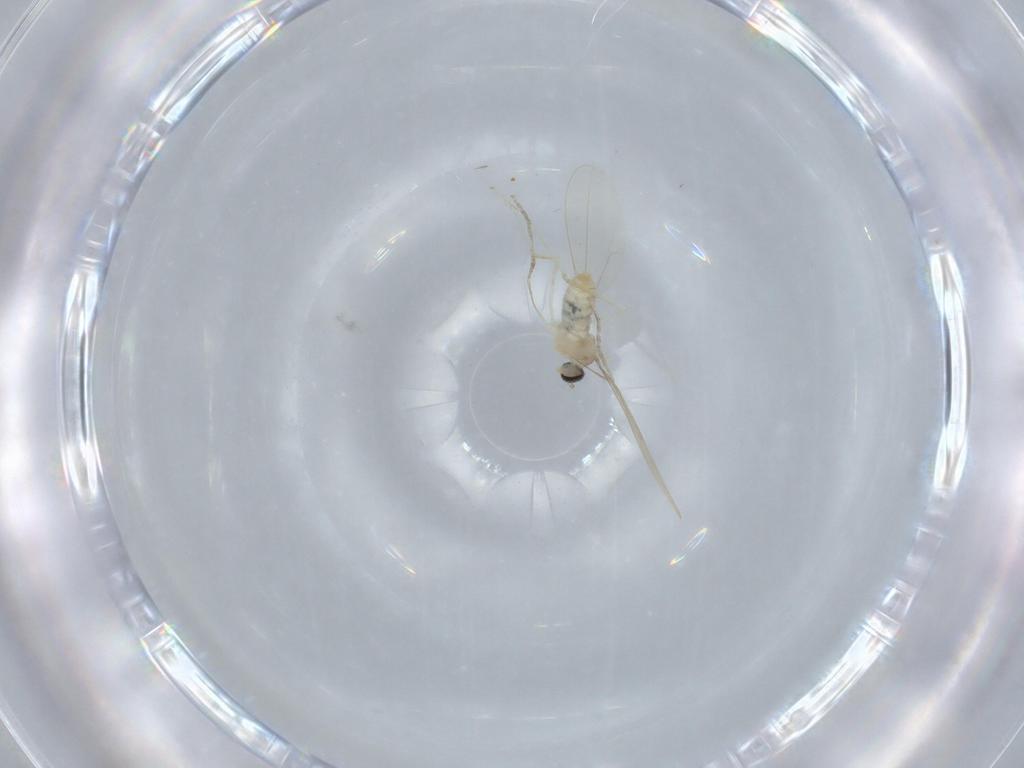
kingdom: Animalia
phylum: Arthropoda
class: Insecta
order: Diptera
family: Cecidomyiidae
